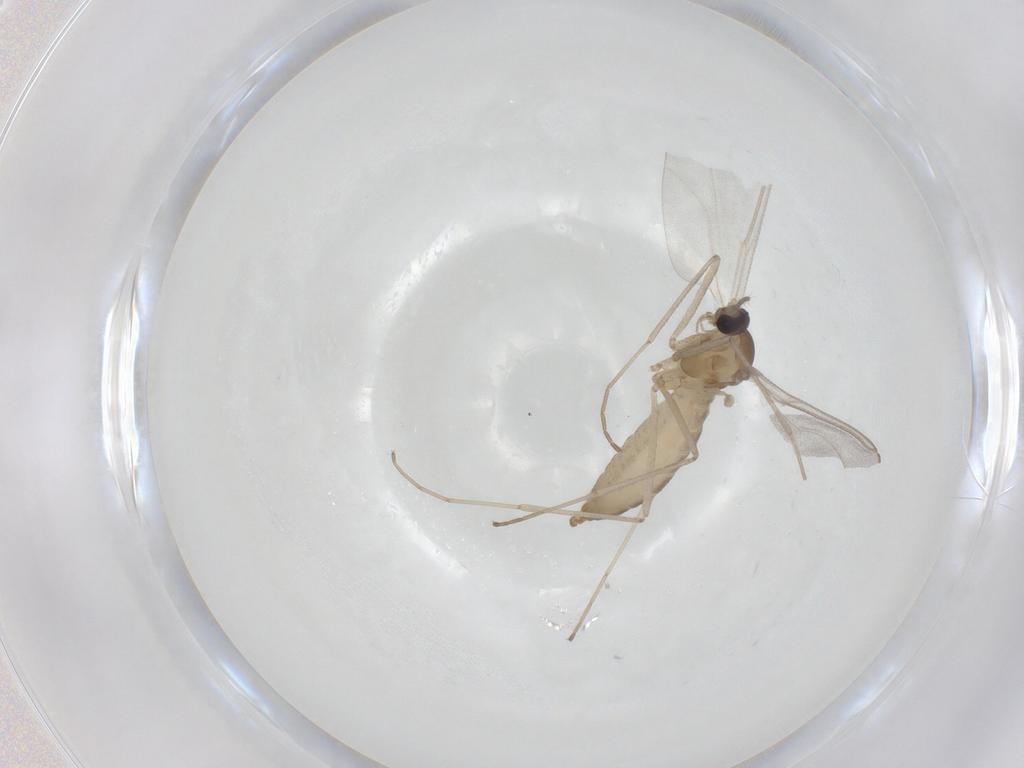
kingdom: Animalia
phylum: Arthropoda
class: Insecta
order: Diptera
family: Cecidomyiidae
